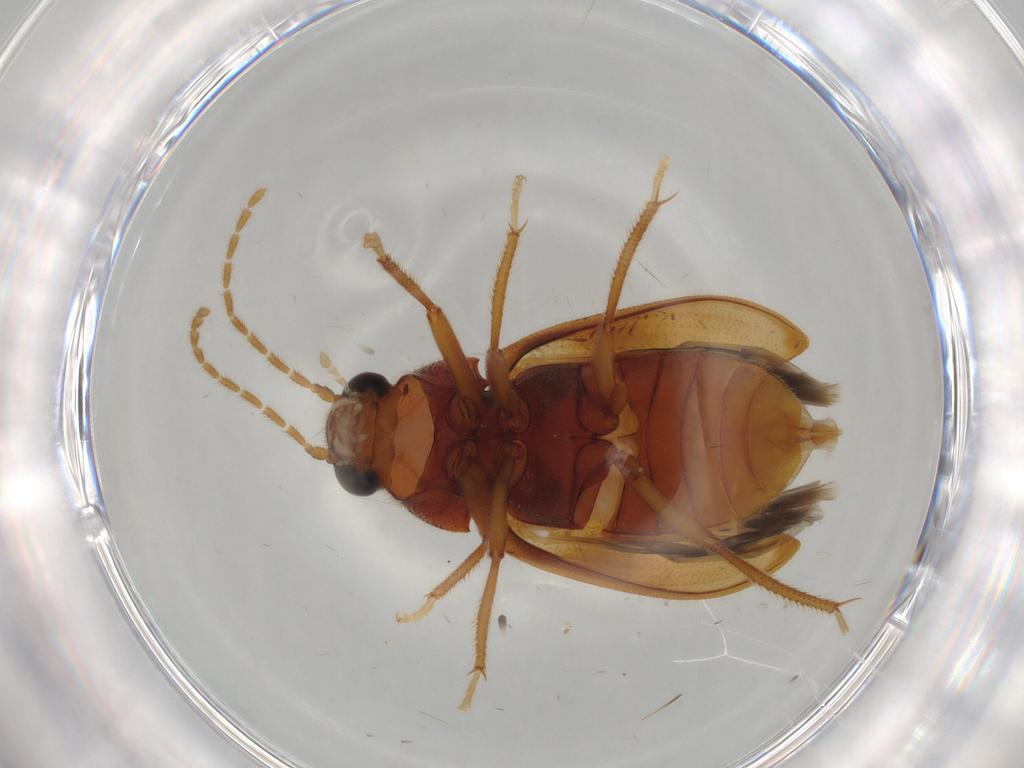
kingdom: Animalia
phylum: Arthropoda
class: Insecta
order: Coleoptera
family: Ptilodactylidae
